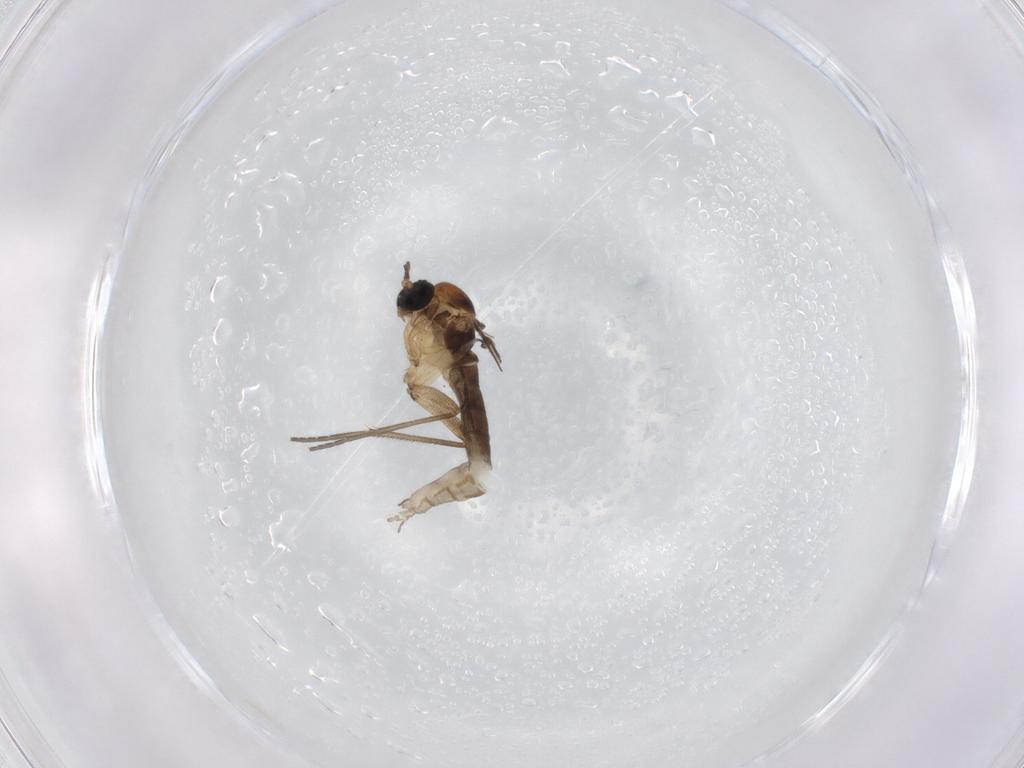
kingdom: Animalia
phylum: Arthropoda
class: Insecta
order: Diptera
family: Sciaridae
